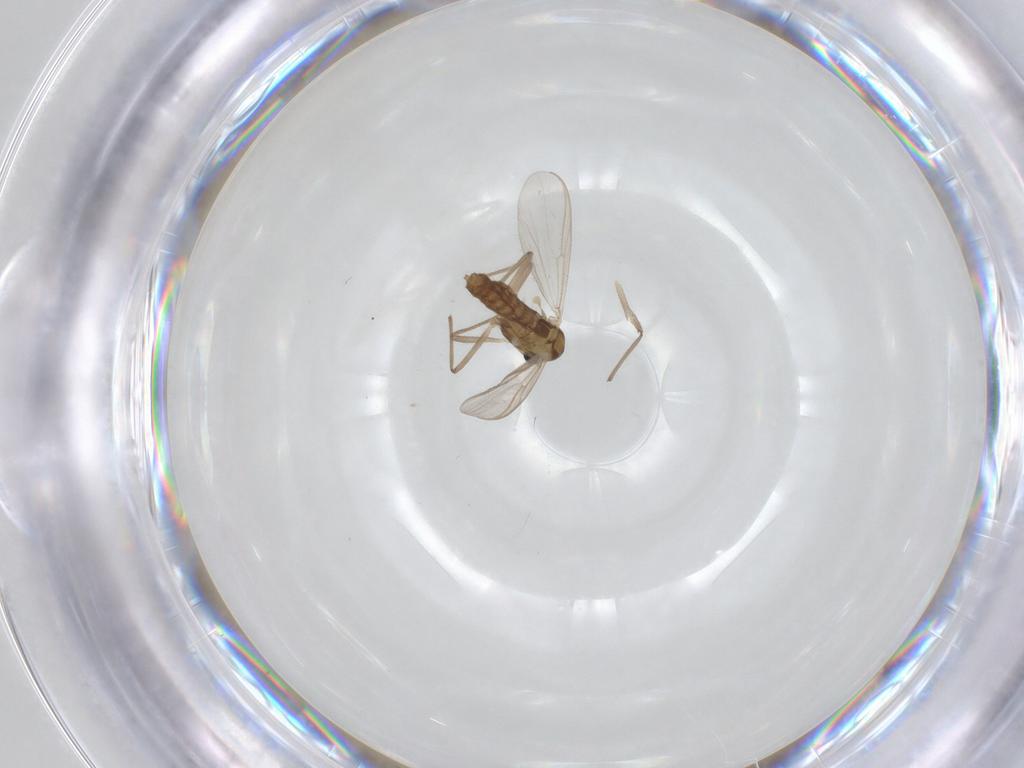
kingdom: Animalia
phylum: Arthropoda
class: Insecta
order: Diptera
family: Chironomidae
